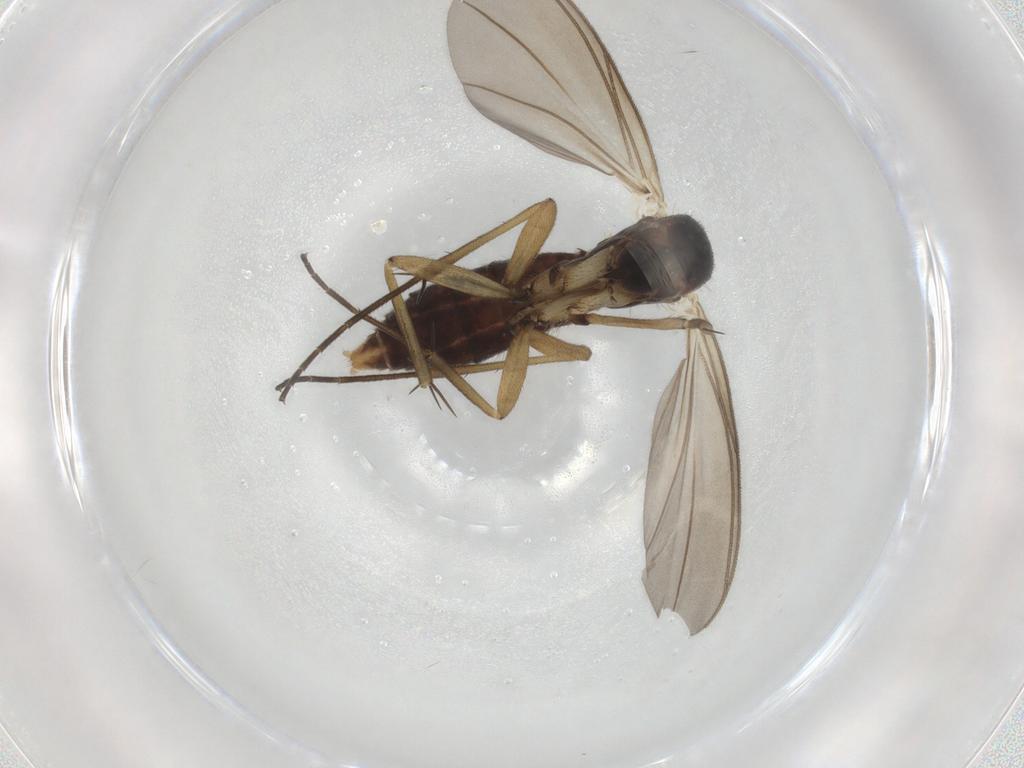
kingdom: Animalia
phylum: Arthropoda
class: Insecta
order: Diptera
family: Mycetophilidae
